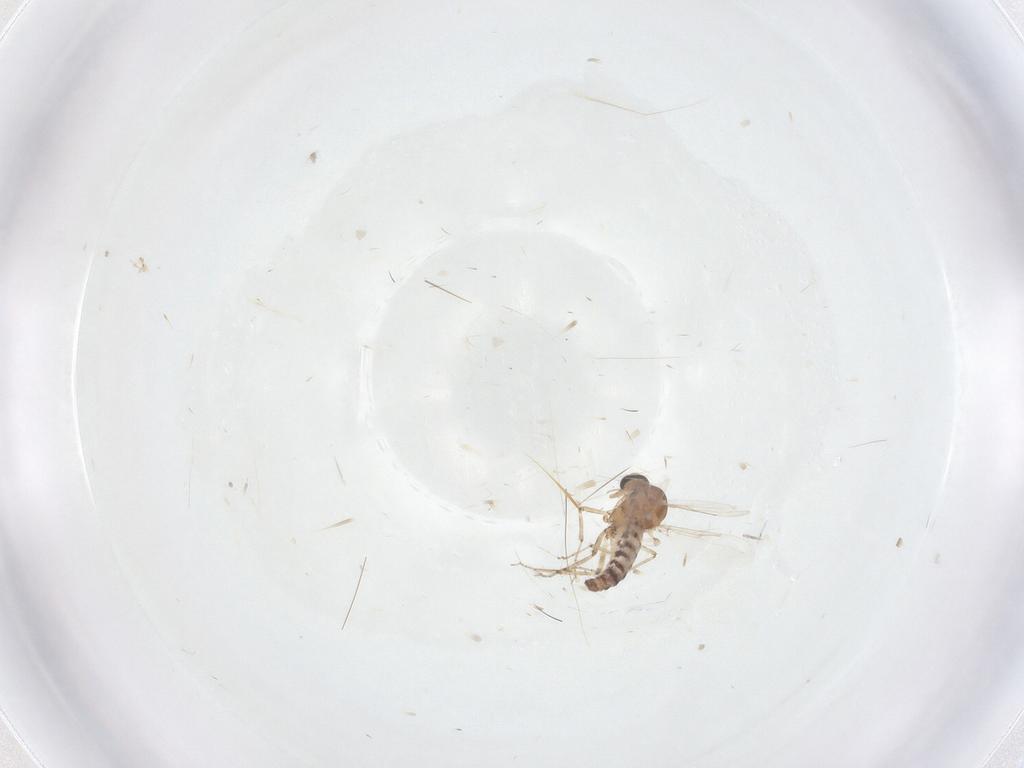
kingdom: Animalia
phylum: Arthropoda
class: Insecta
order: Diptera
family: Ceratopogonidae
